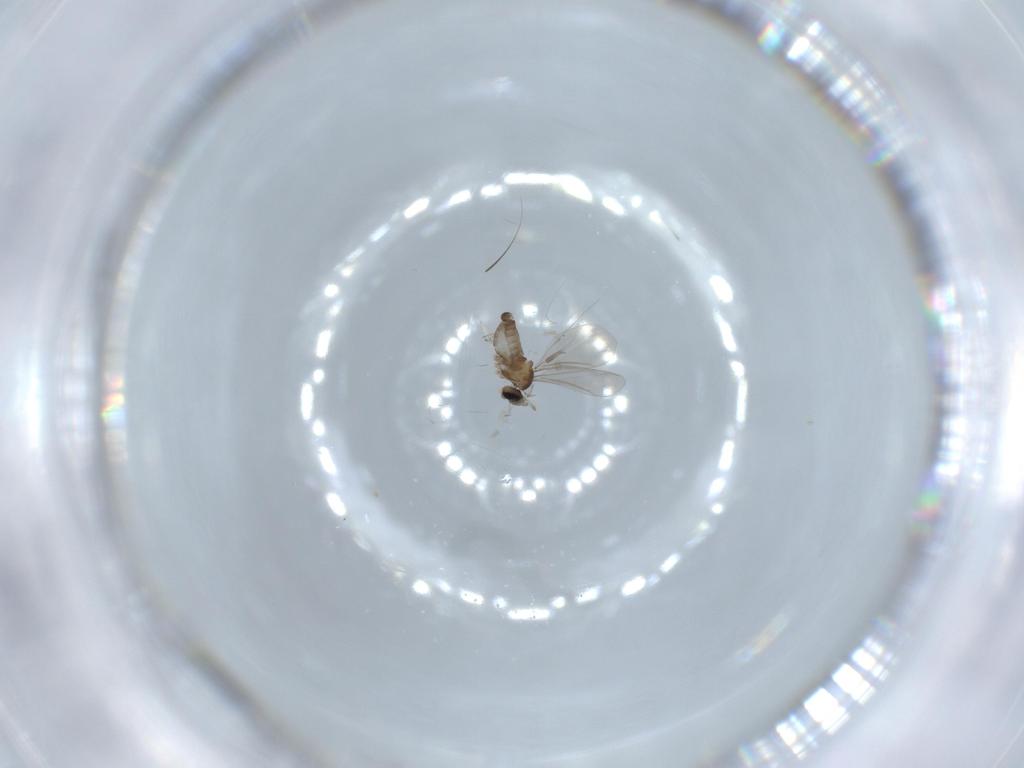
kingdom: Animalia
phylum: Arthropoda
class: Insecta
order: Diptera
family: Cecidomyiidae
